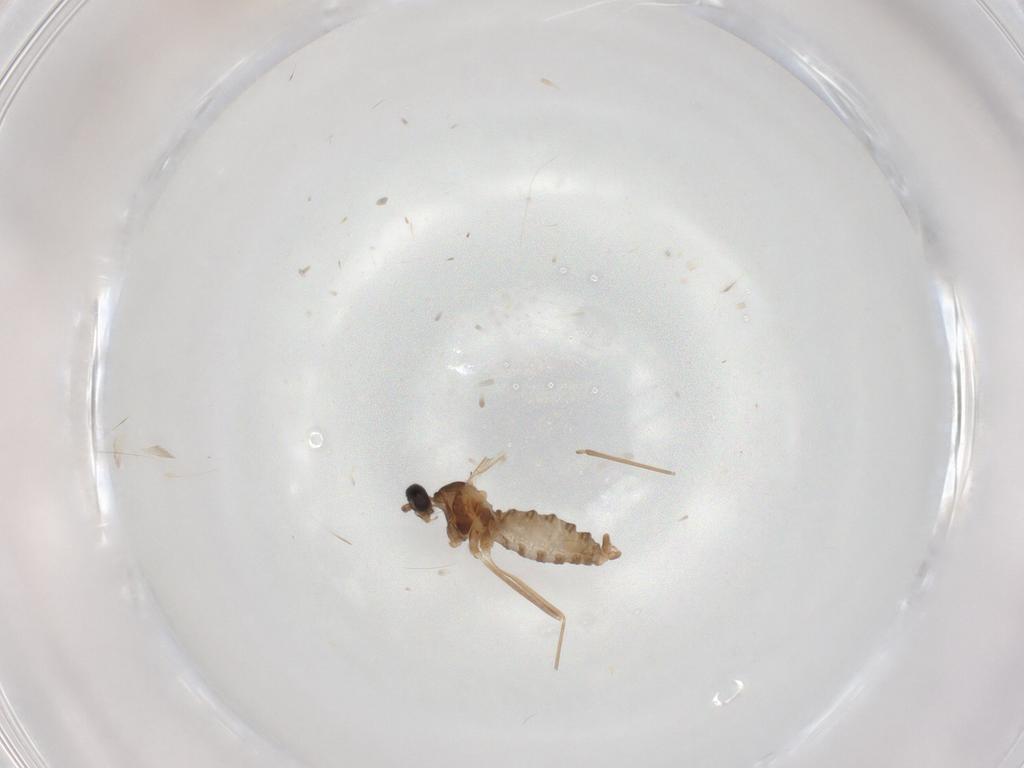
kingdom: Animalia
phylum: Arthropoda
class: Insecta
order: Diptera
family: Cecidomyiidae
